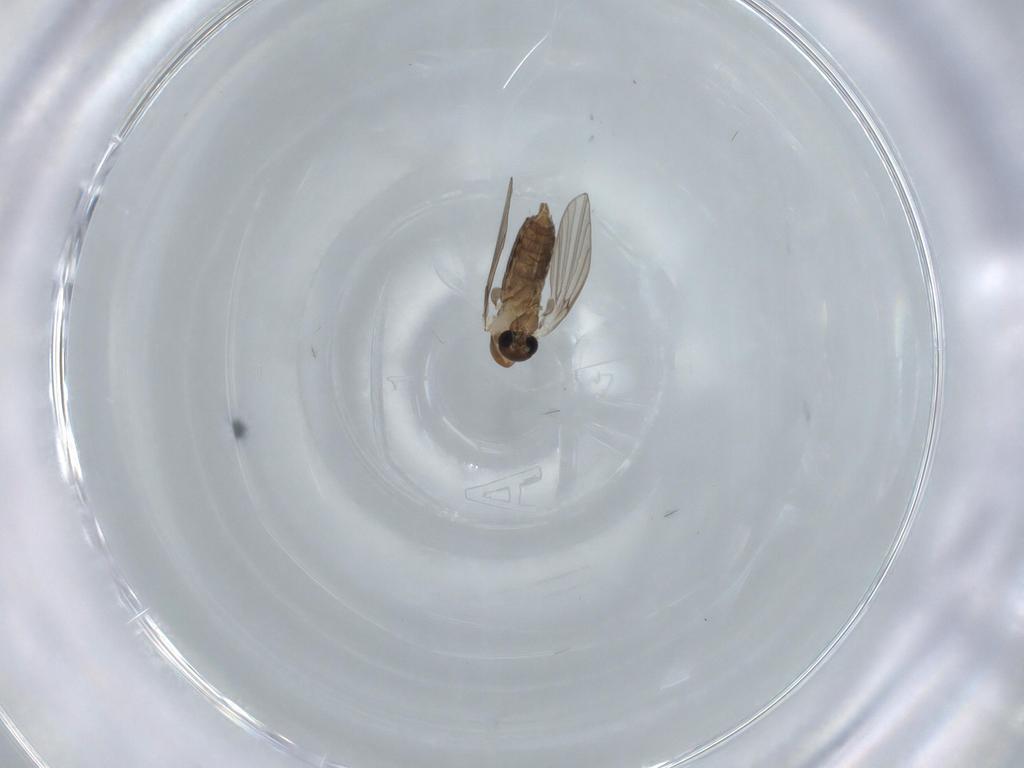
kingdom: Animalia
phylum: Arthropoda
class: Insecta
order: Diptera
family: Psychodidae
